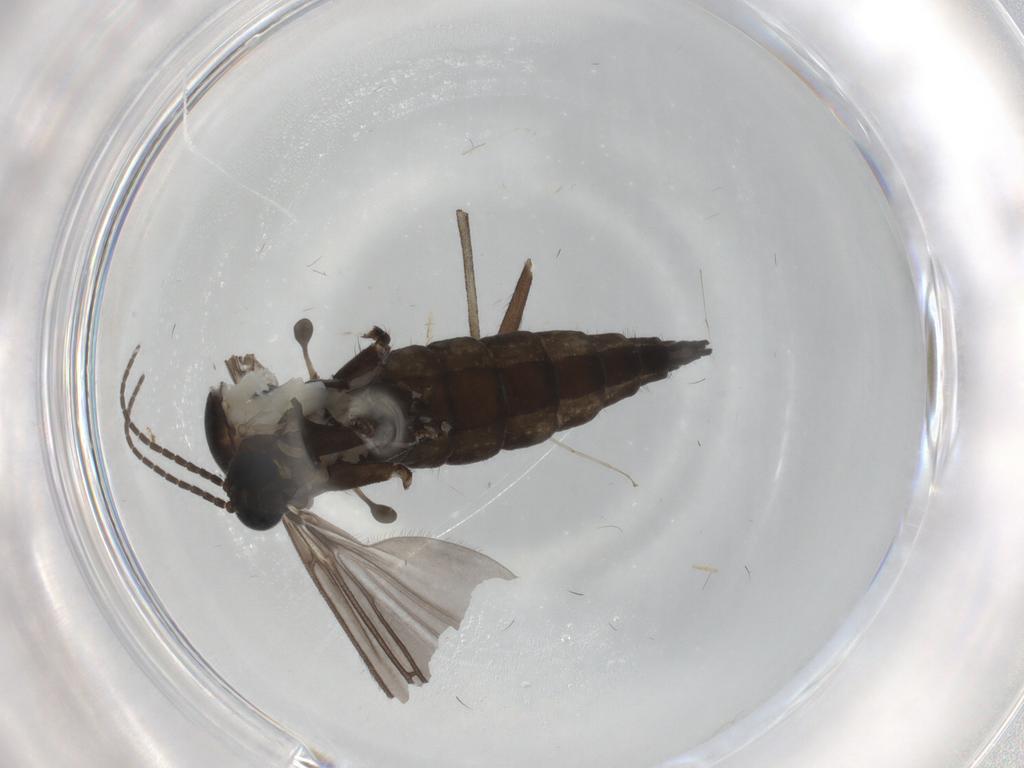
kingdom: Animalia
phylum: Arthropoda
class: Insecta
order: Diptera
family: Sciaridae
